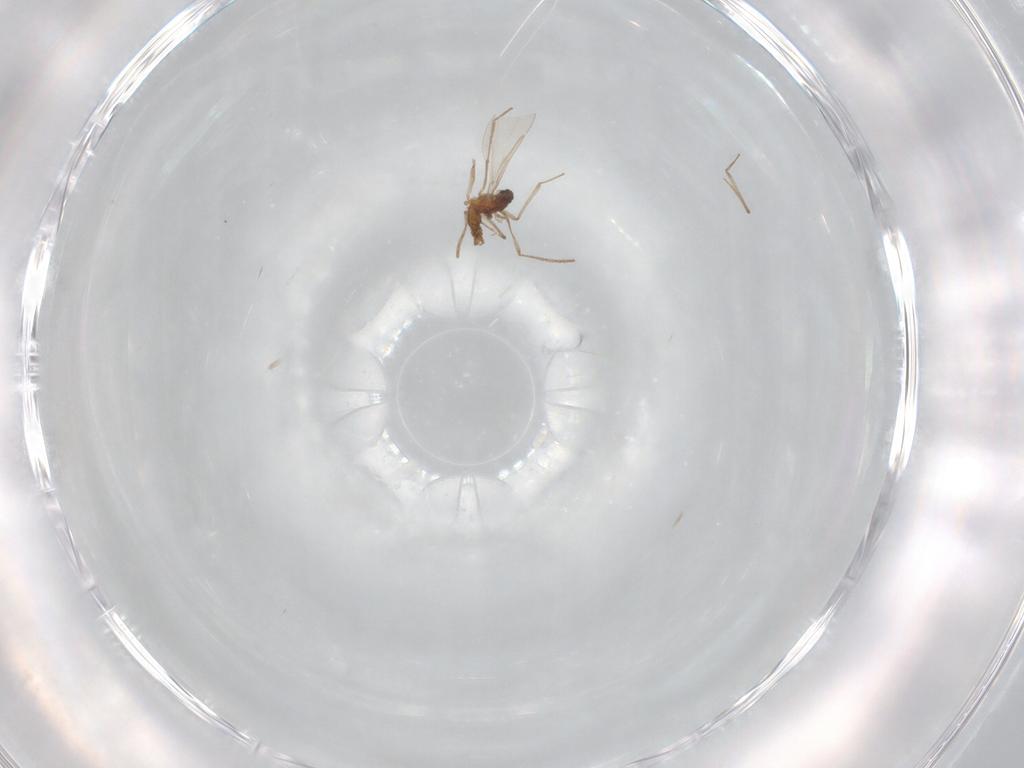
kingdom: Animalia
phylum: Arthropoda
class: Insecta
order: Diptera
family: Cecidomyiidae
